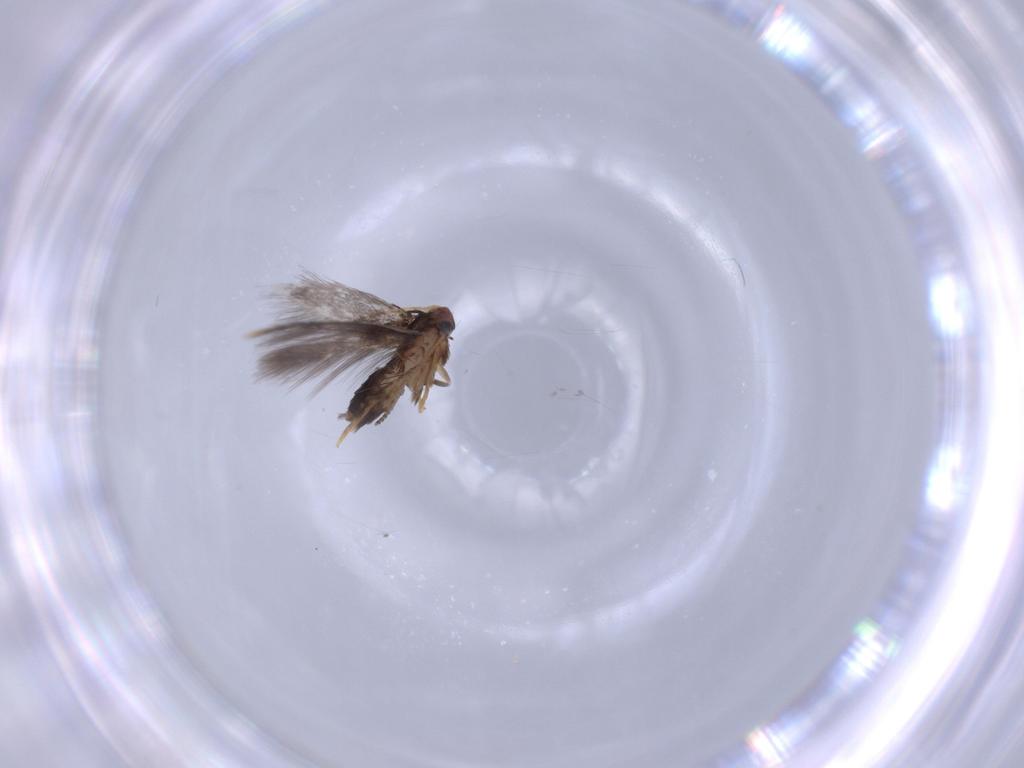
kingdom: Animalia
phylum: Arthropoda
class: Insecta
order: Lepidoptera
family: Nepticulidae
